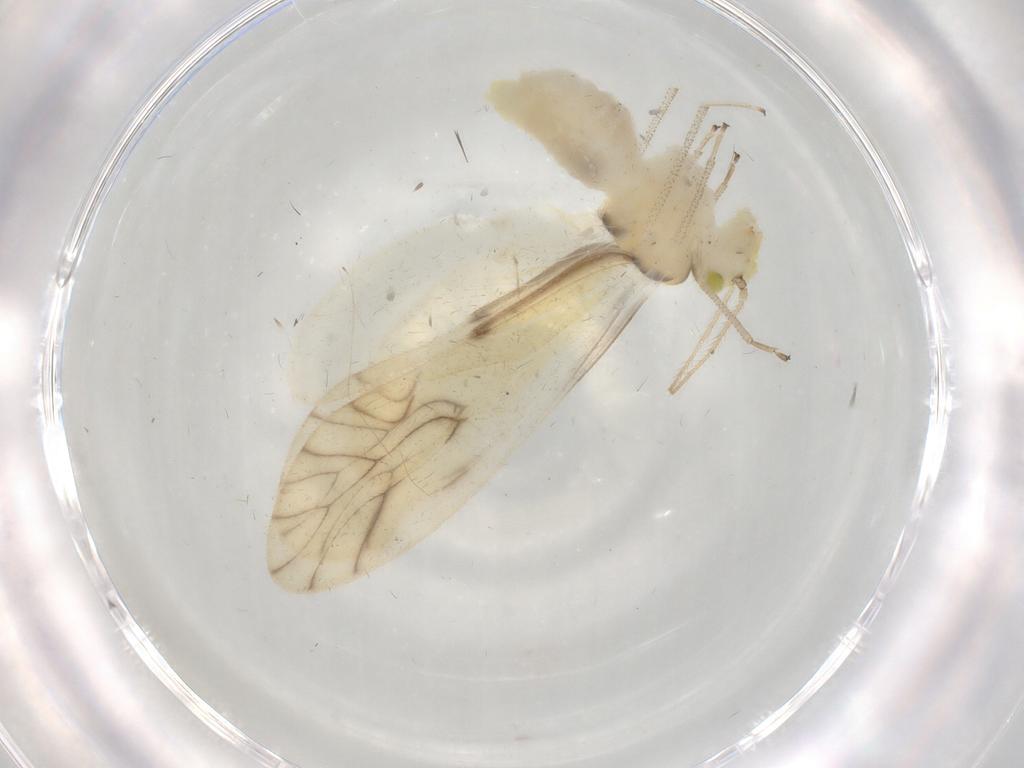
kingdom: Animalia
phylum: Arthropoda
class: Insecta
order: Psocodea
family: Caeciliusidae
